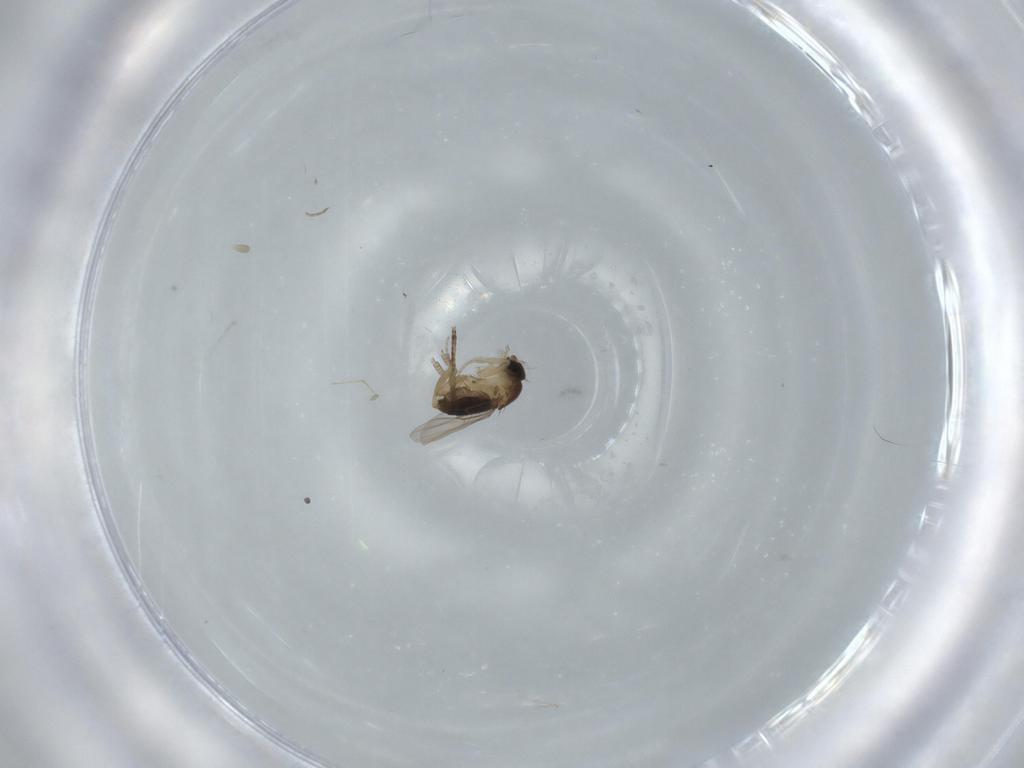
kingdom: Animalia
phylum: Arthropoda
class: Insecta
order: Diptera
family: Phoridae
